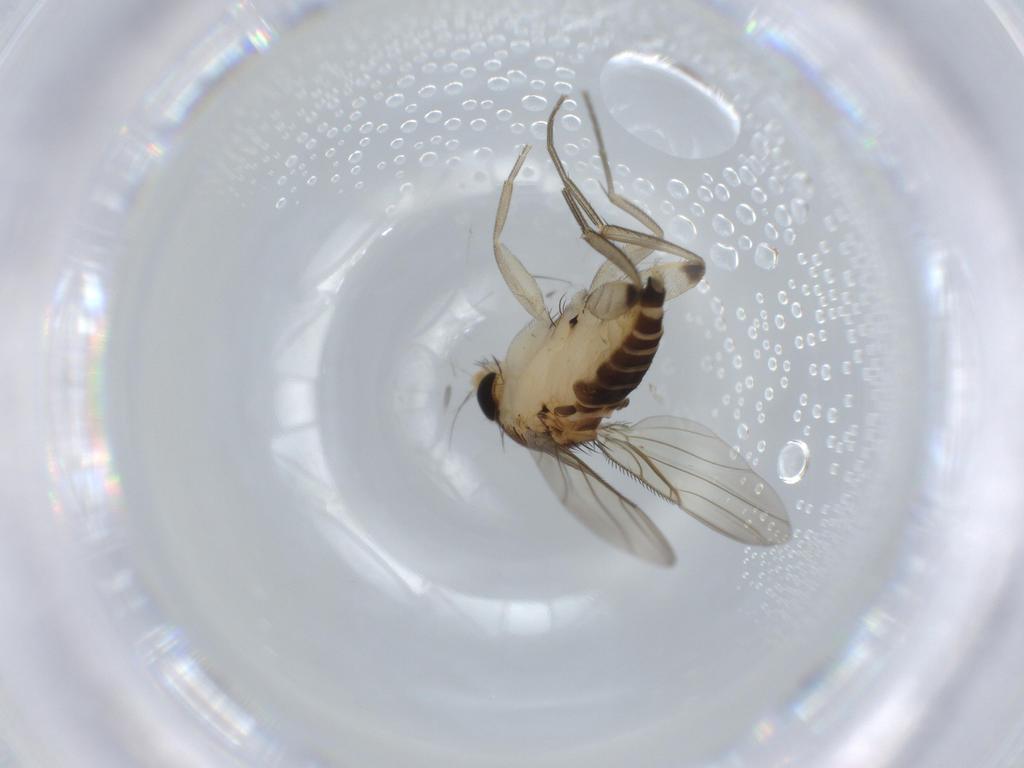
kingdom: Animalia
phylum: Arthropoda
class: Insecta
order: Diptera
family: Sciaridae
